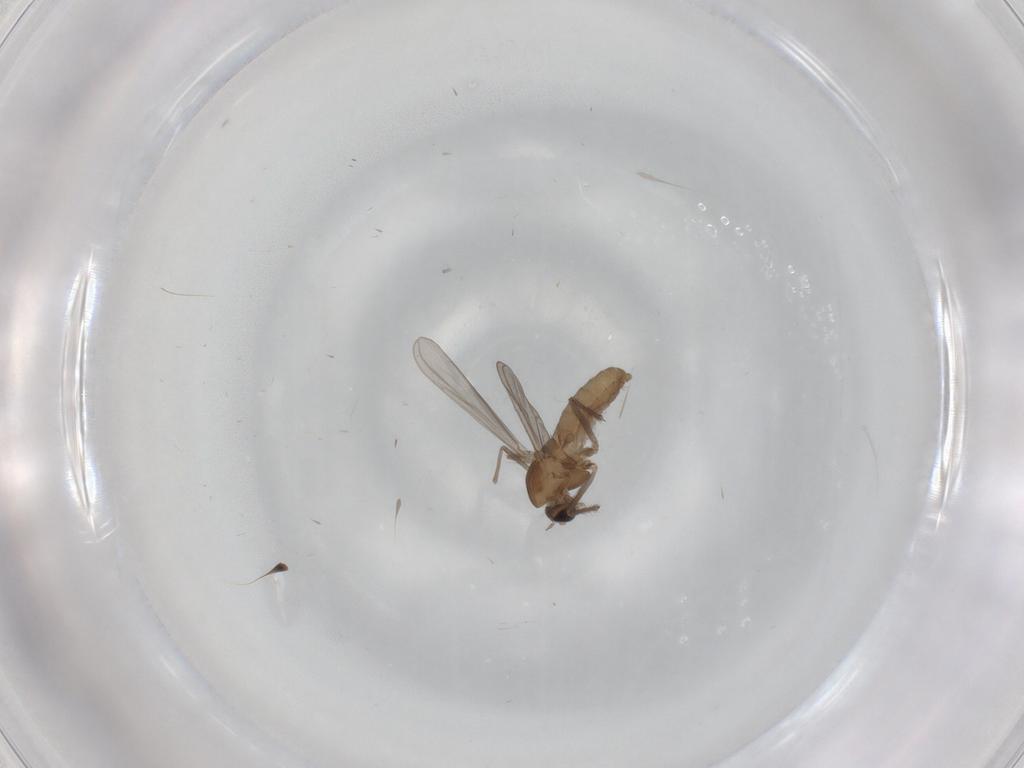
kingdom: Animalia
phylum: Arthropoda
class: Insecta
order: Diptera
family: Chironomidae
